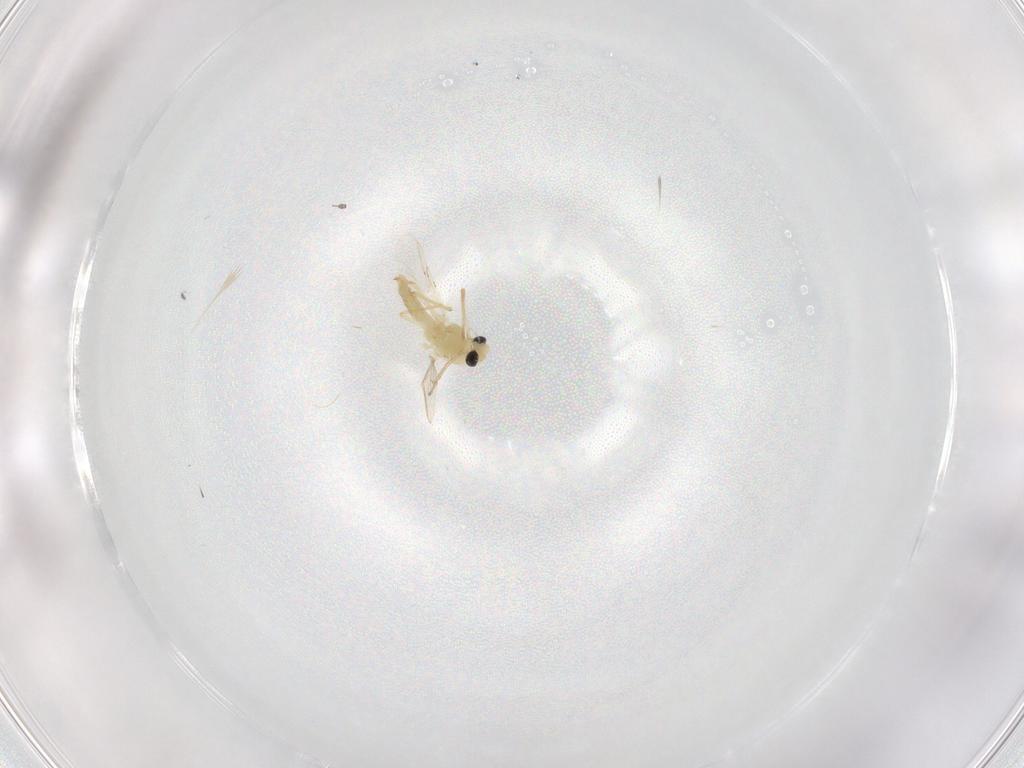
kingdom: Animalia
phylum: Arthropoda
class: Insecta
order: Diptera
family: Chironomidae
